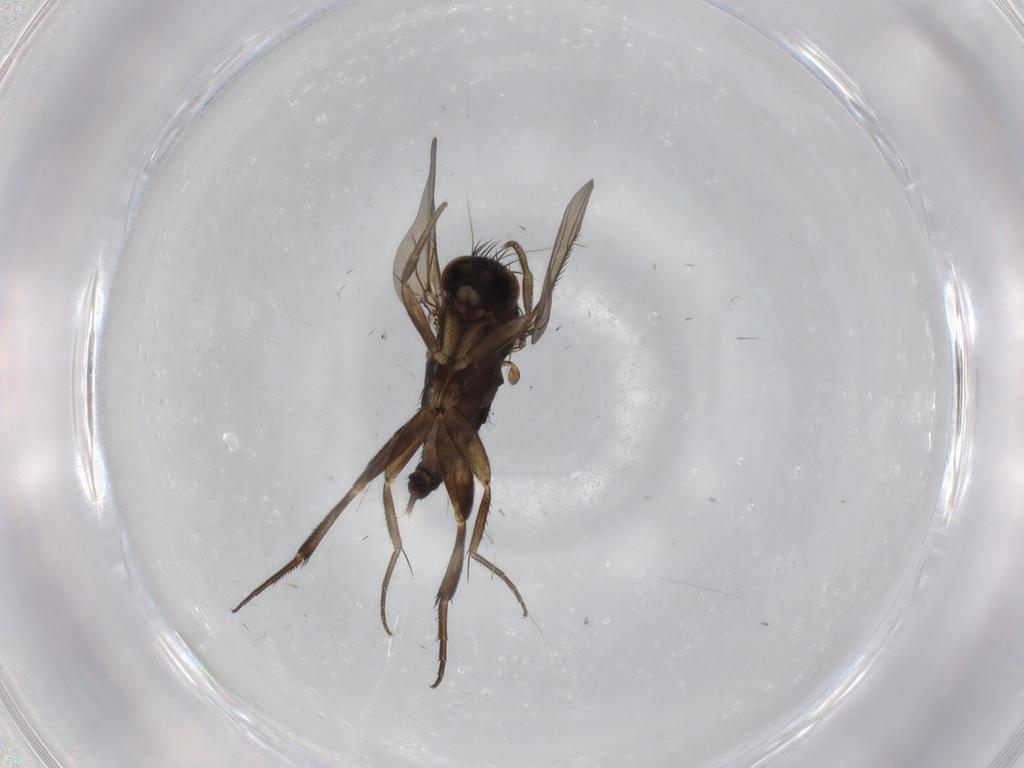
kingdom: Animalia
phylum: Arthropoda
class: Insecta
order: Diptera
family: Phoridae
